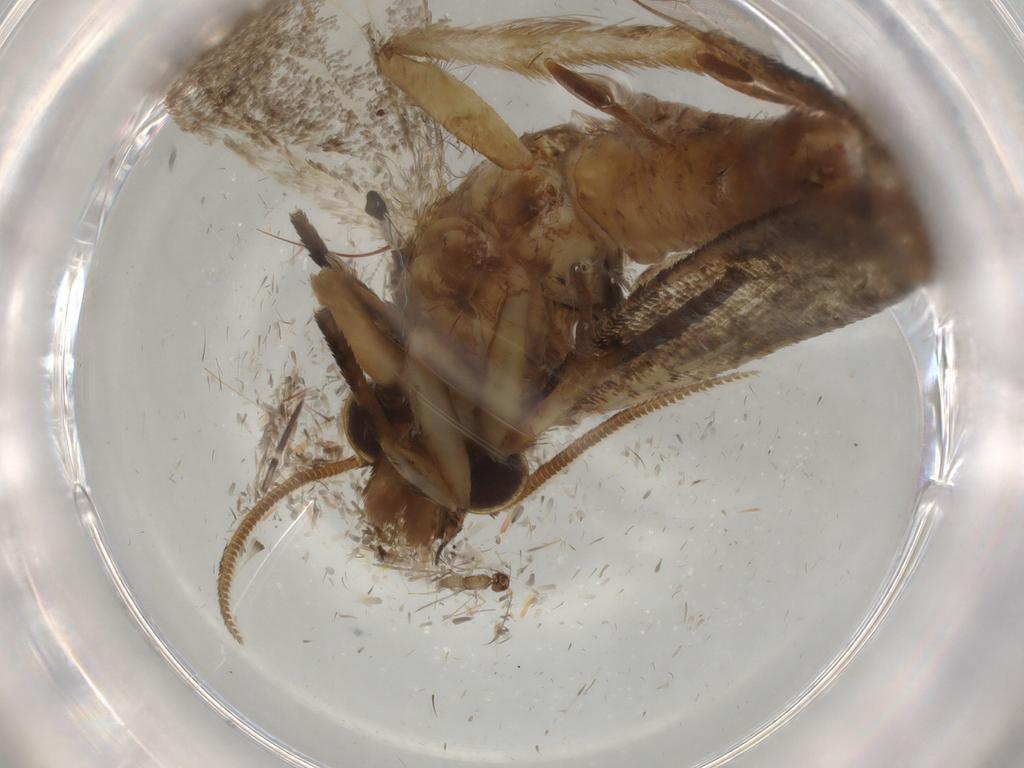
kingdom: Animalia
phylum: Arthropoda
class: Insecta
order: Lepidoptera
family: Tineidae
